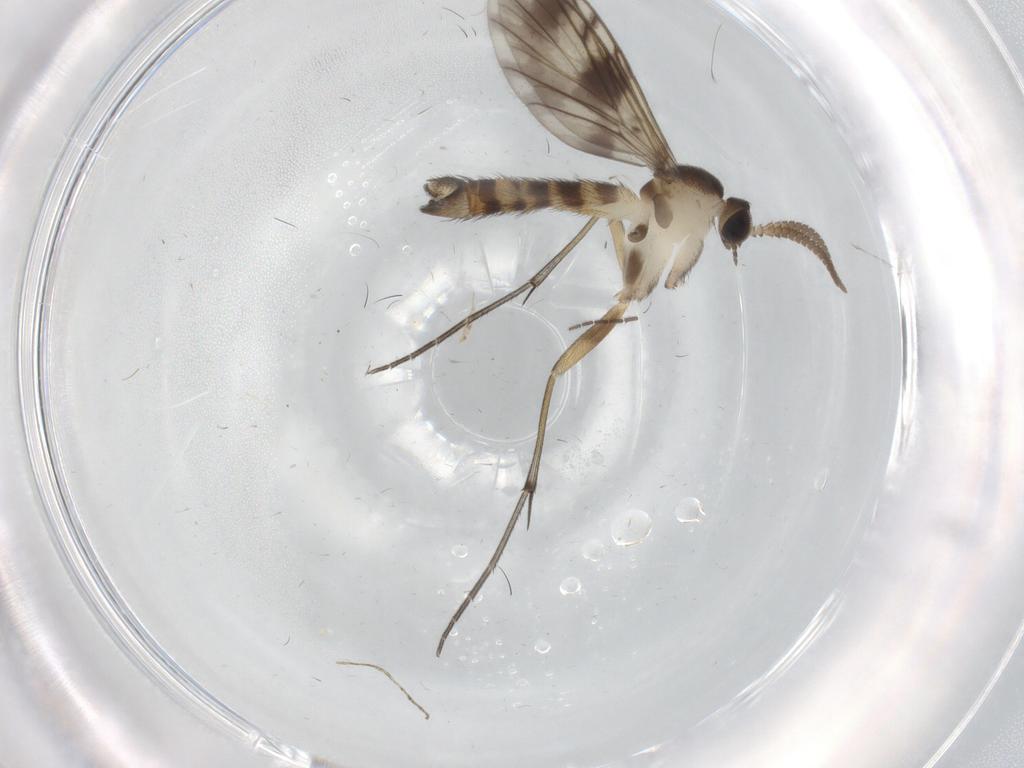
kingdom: Animalia
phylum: Arthropoda
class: Insecta
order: Diptera
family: Keroplatidae
